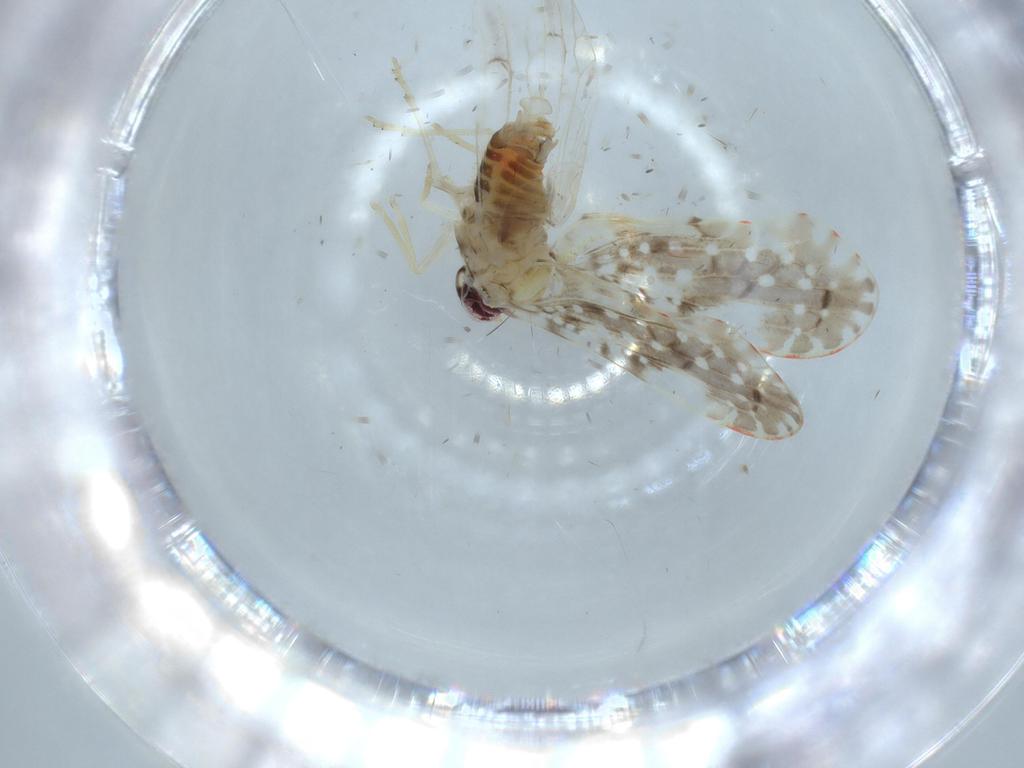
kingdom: Animalia
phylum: Arthropoda
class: Insecta
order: Hemiptera
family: Derbidae
